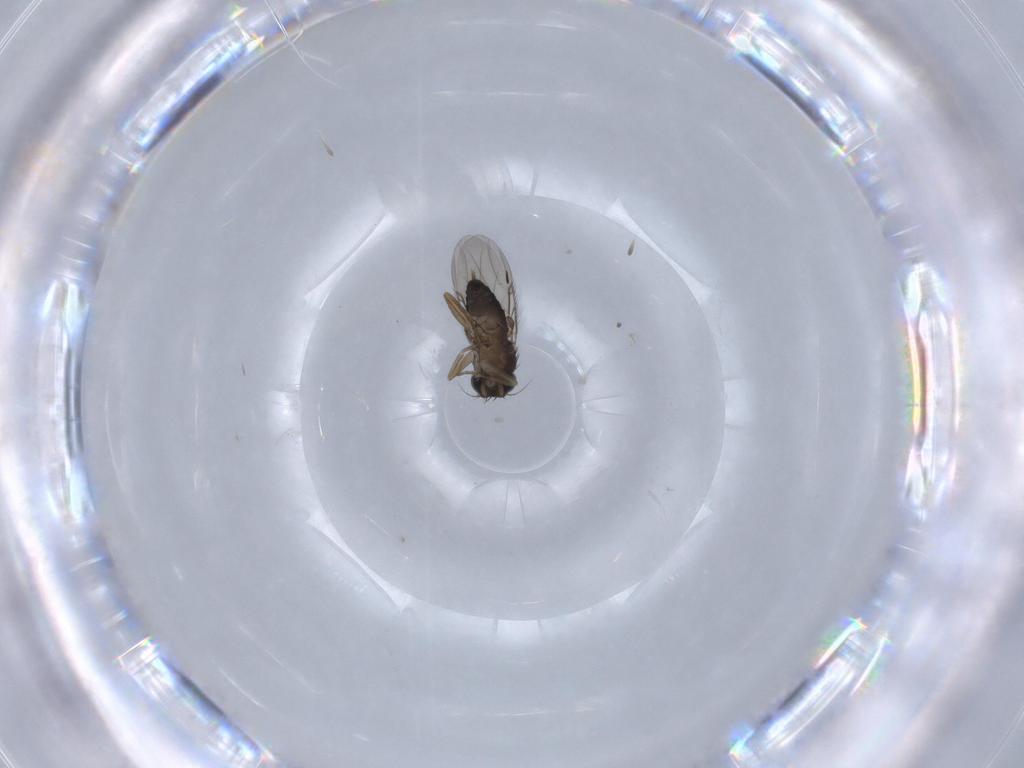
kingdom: Animalia
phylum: Arthropoda
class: Insecta
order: Diptera
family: Phoridae
